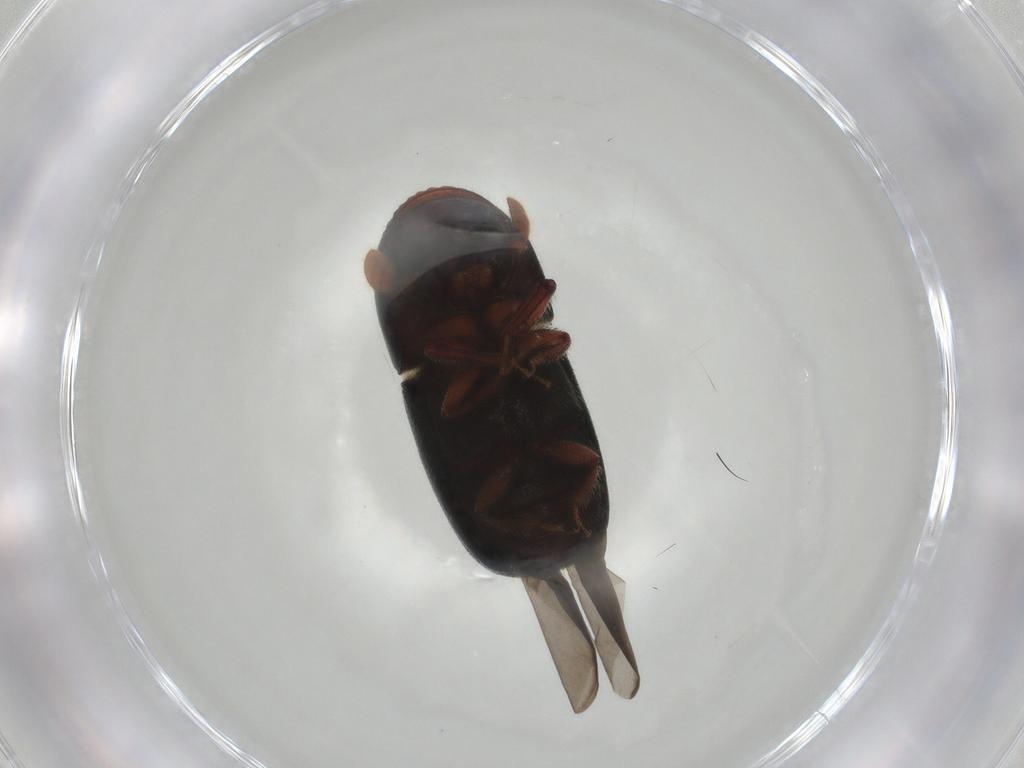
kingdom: Animalia
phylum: Arthropoda
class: Insecta
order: Coleoptera
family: Curculionidae
